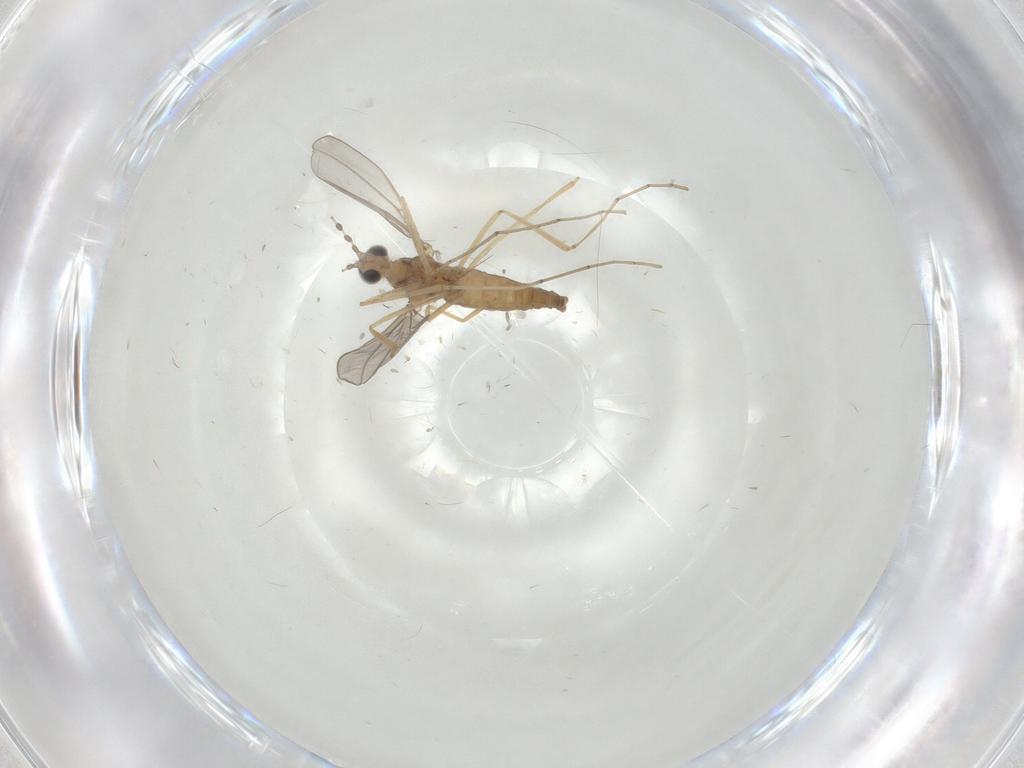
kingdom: Animalia
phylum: Arthropoda
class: Insecta
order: Diptera
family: Cecidomyiidae
